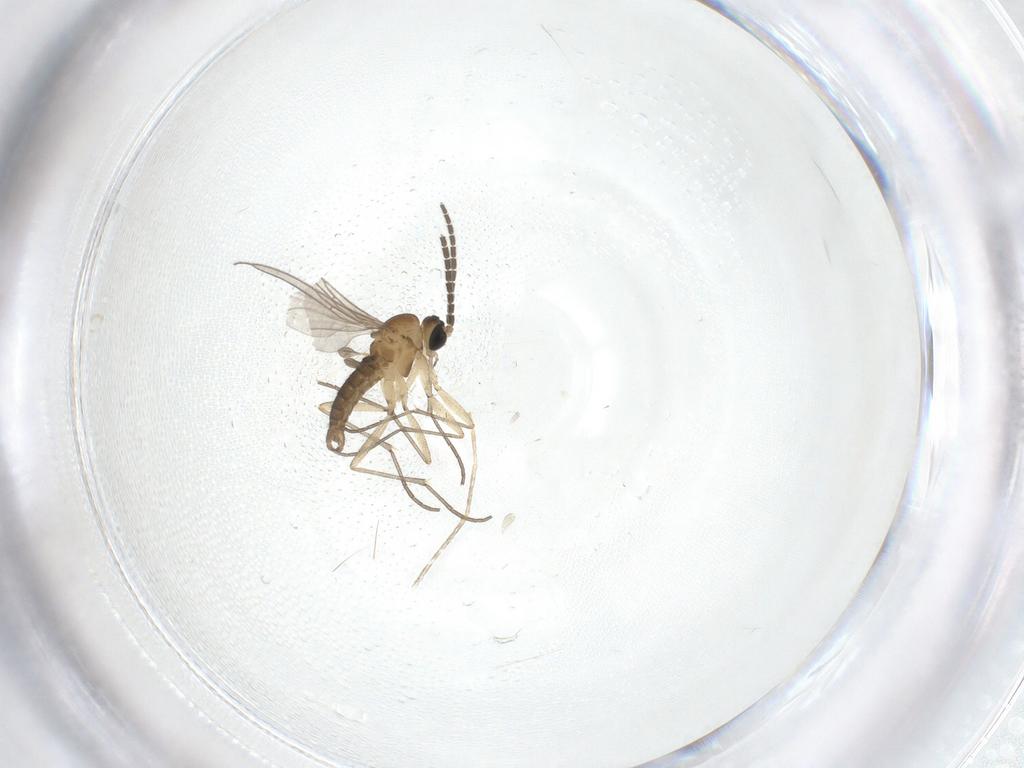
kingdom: Animalia
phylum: Arthropoda
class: Insecta
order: Diptera
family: Sciaridae
